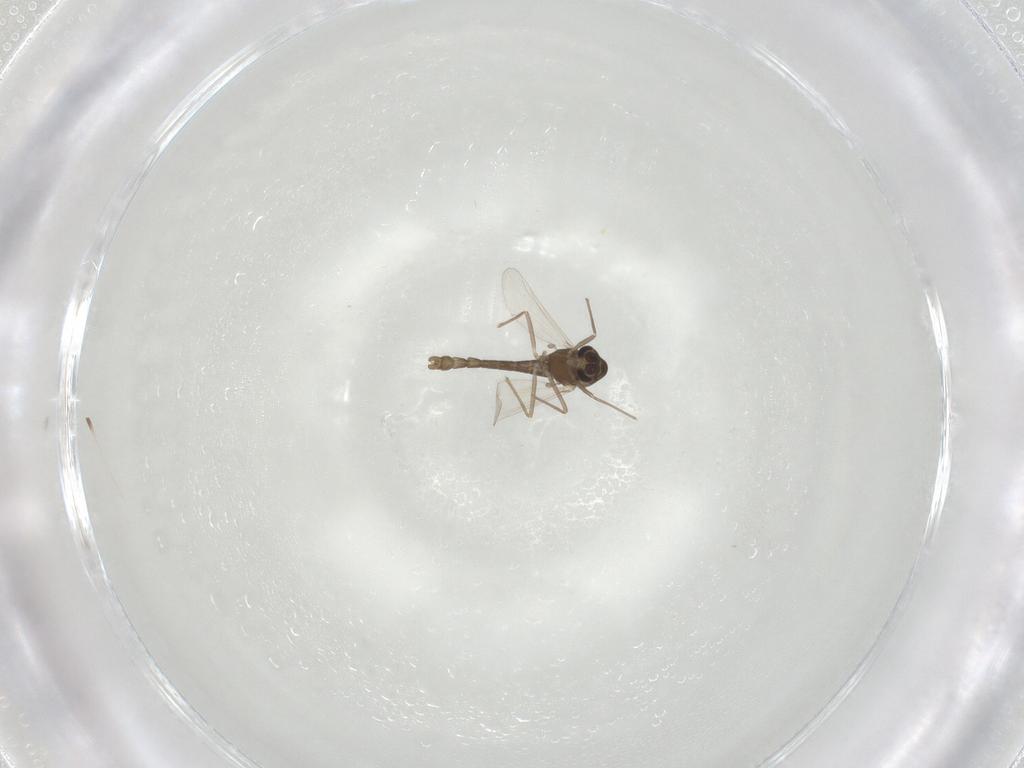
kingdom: Animalia
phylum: Arthropoda
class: Insecta
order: Diptera
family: Chironomidae
